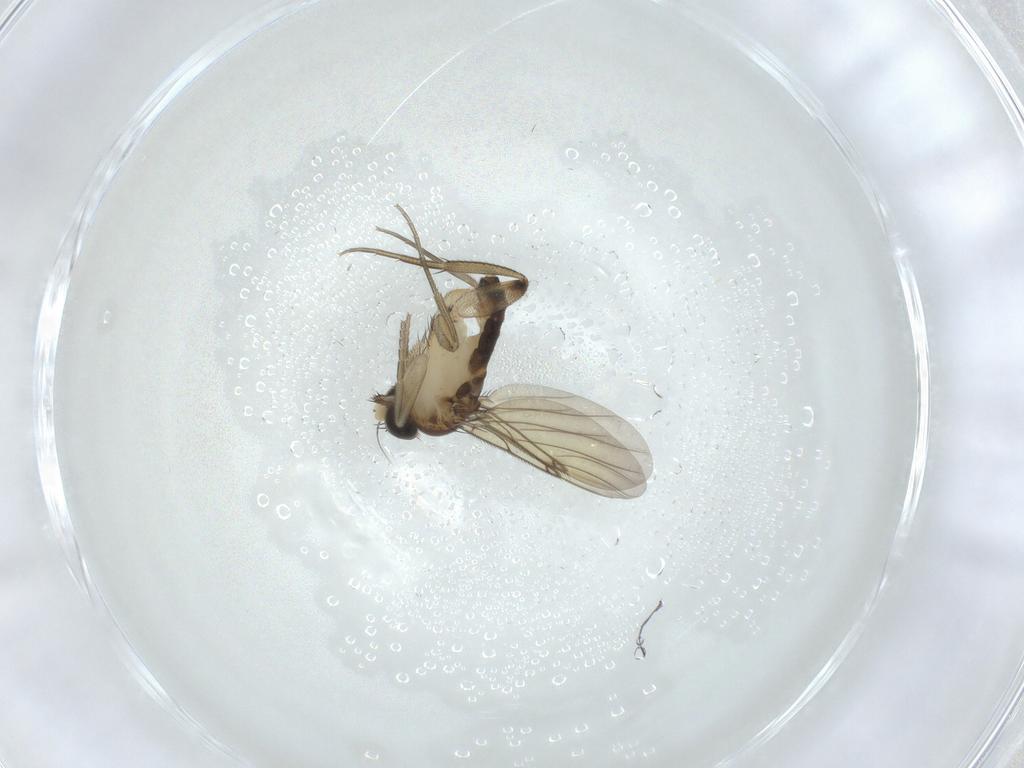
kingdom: Animalia
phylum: Arthropoda
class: Insecta
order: Diptera
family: Phoridae
